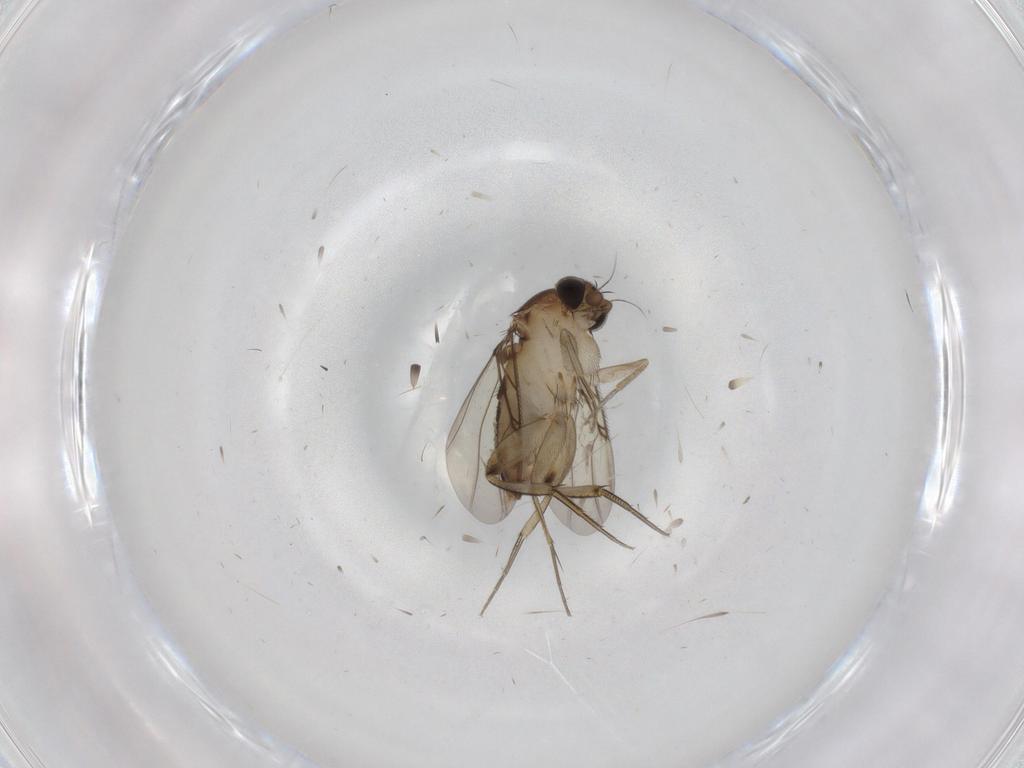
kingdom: Animalia
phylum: Arthropoda
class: Insecta
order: Diptera
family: Phoridae
